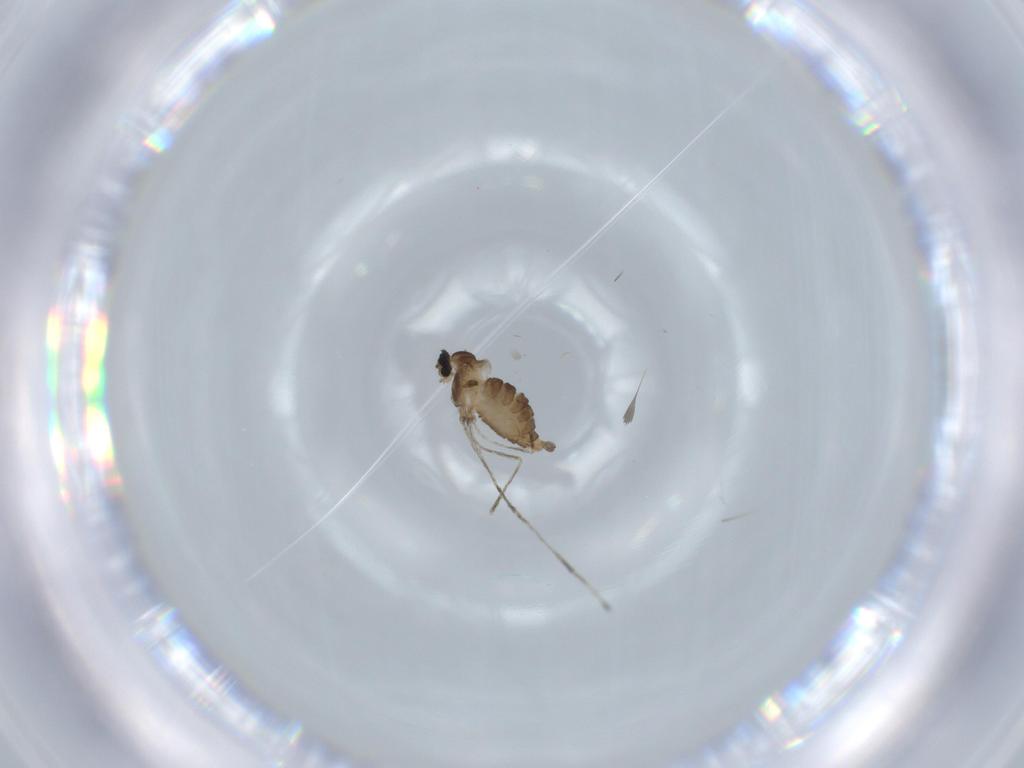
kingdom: Animalia
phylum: Arthropoda
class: Insecta
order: Diptera
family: Cecidomyiidae
